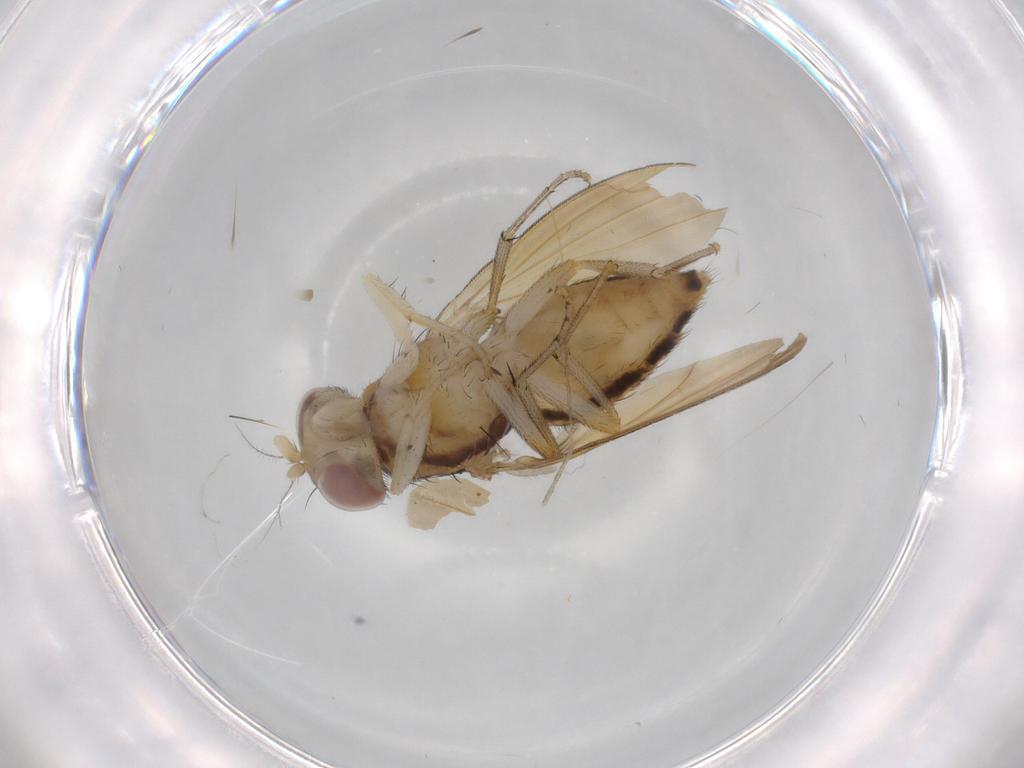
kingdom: Animalia
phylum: Arthropoda
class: Insecta
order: Diptera
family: Cecidomyiidae
